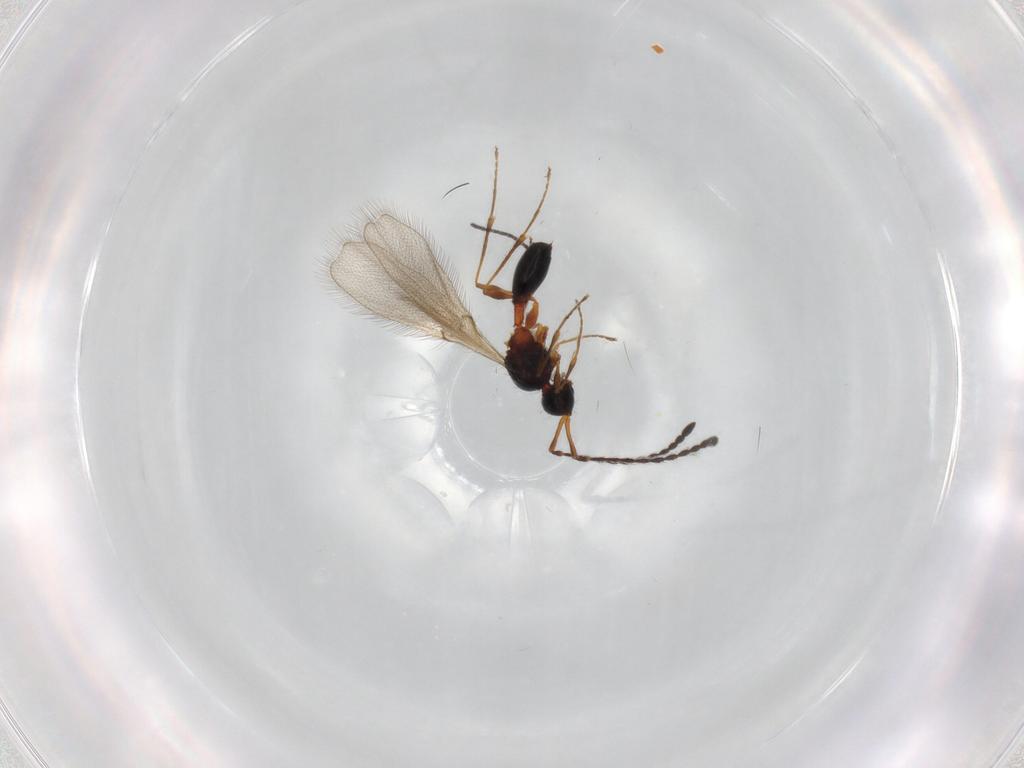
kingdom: Animalia
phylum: Arthropoda
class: Insecta
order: Hymenoptera
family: Diapriidae
